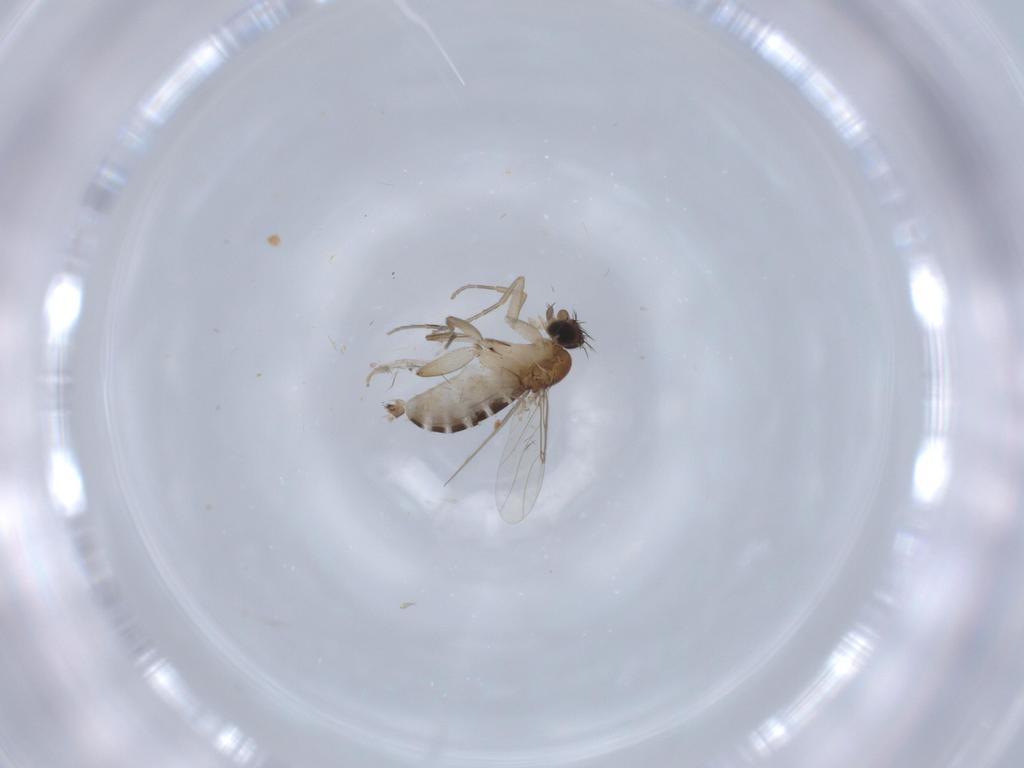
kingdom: Animalia
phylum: Arthropoda
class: Insecta
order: Diptera
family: Phoridae
